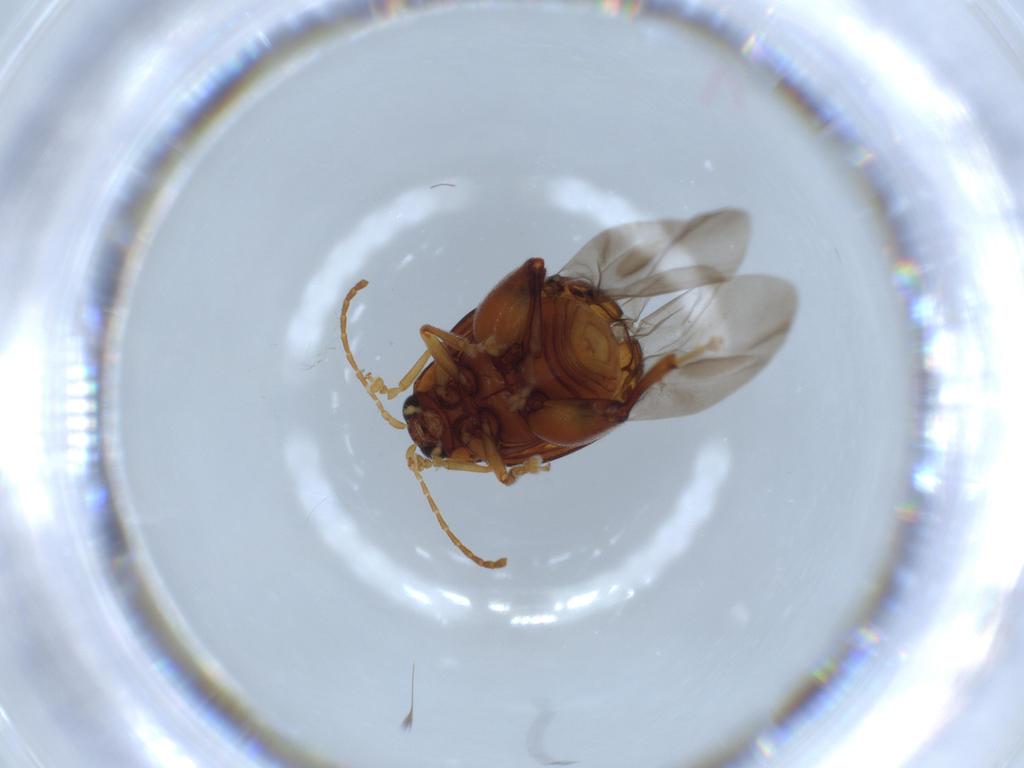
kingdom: Animalia
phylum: Arthropoda
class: Insecta
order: Coleoptera
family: Curculionidae
